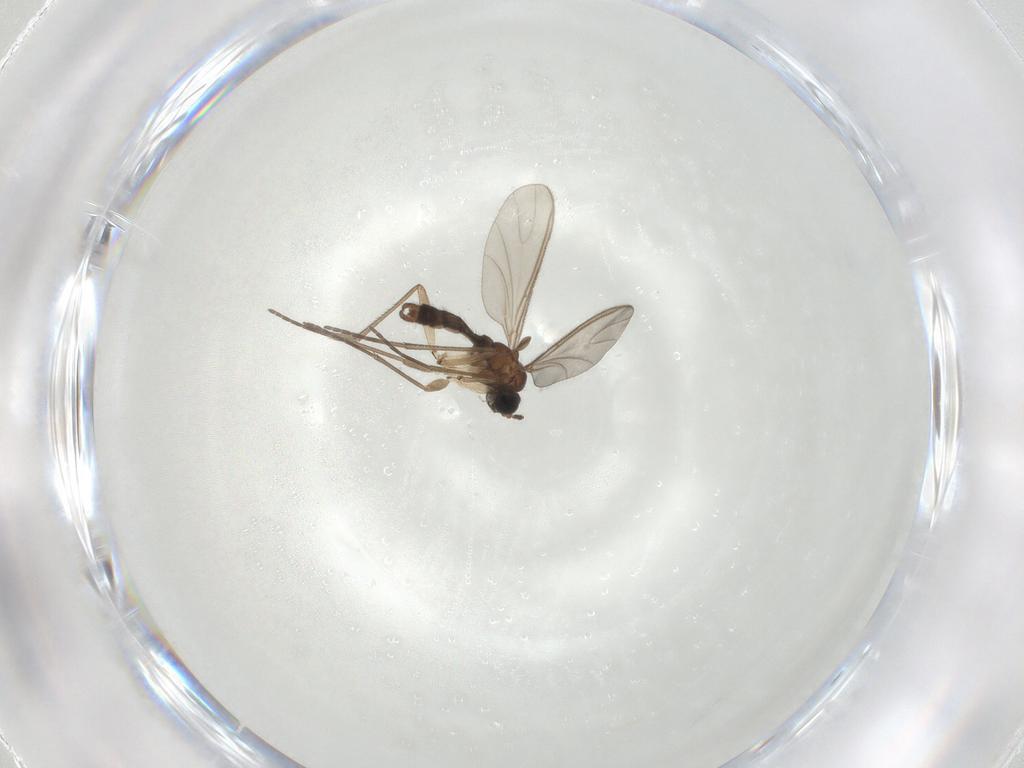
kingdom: Animalia
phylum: Arthropoda
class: Insecta
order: Diptera
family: Sciaridae
